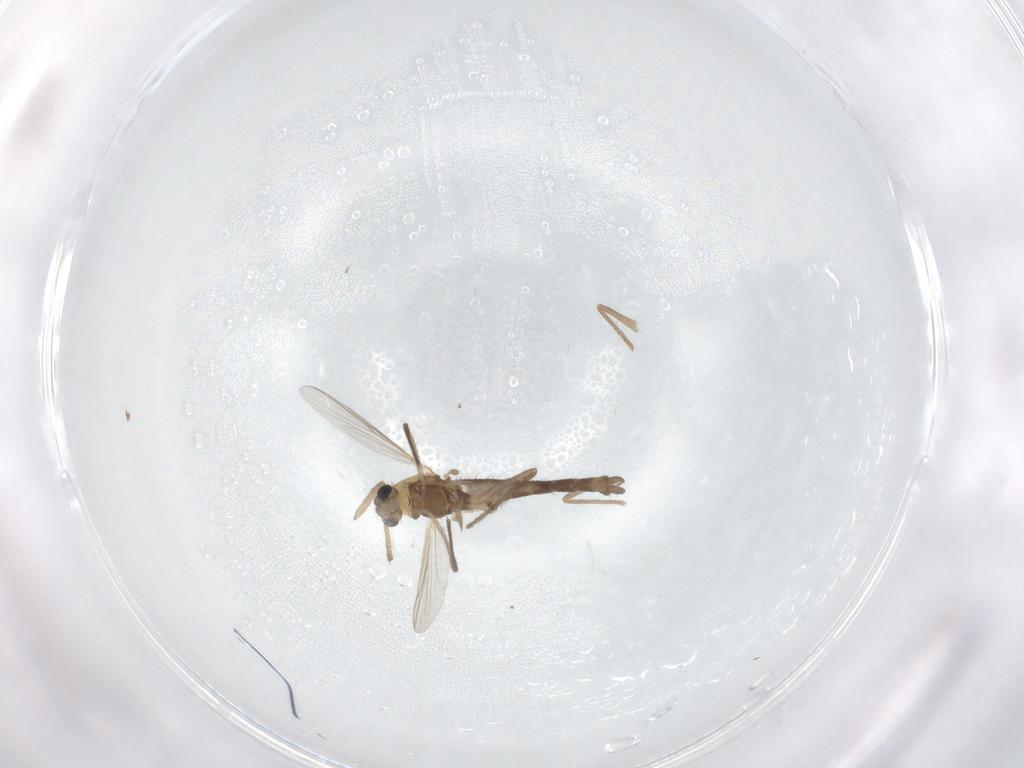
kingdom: Animalia
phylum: Arthropoda
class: Insecta
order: Diptera
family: Chironomidae
